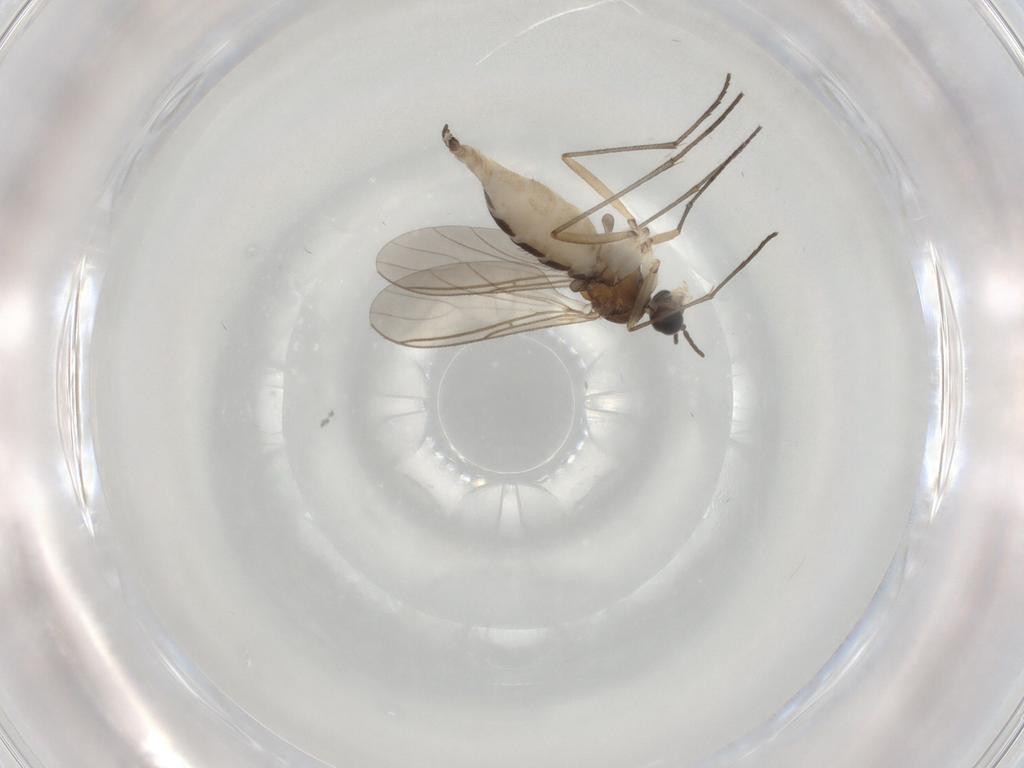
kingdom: Animalia
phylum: Arthropoda
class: Insecta
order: Diptera
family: Sciaridae
